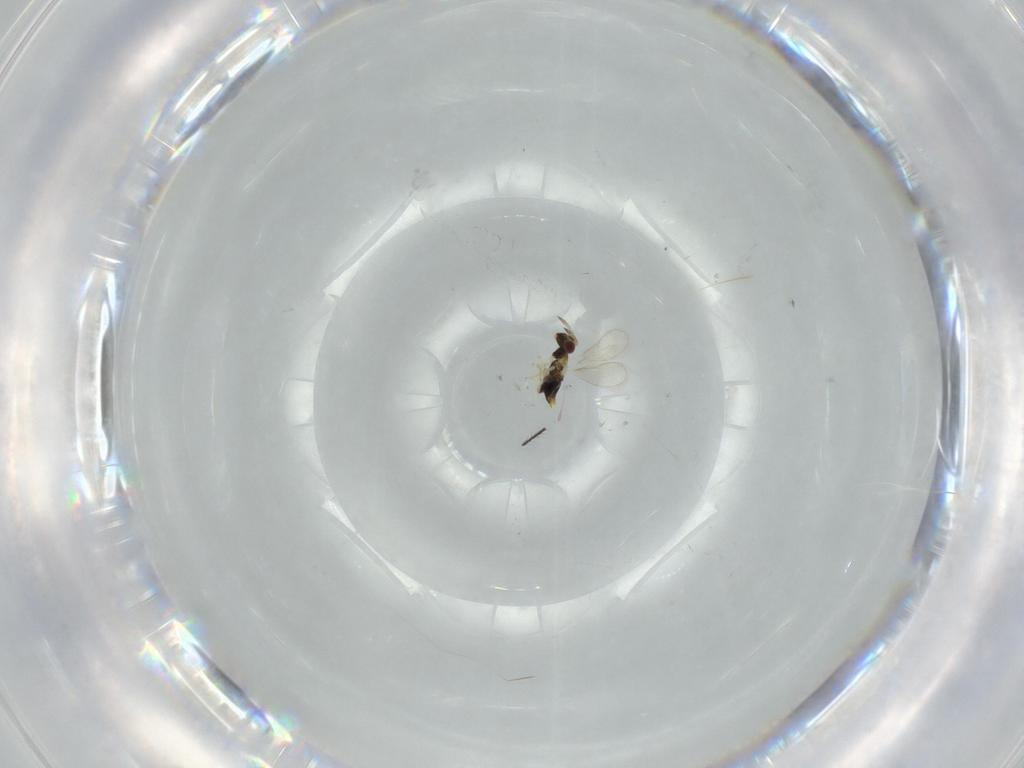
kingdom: Animalia
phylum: Arthropoda
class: Insecta
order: Hymenoptera
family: Aphelinidae
